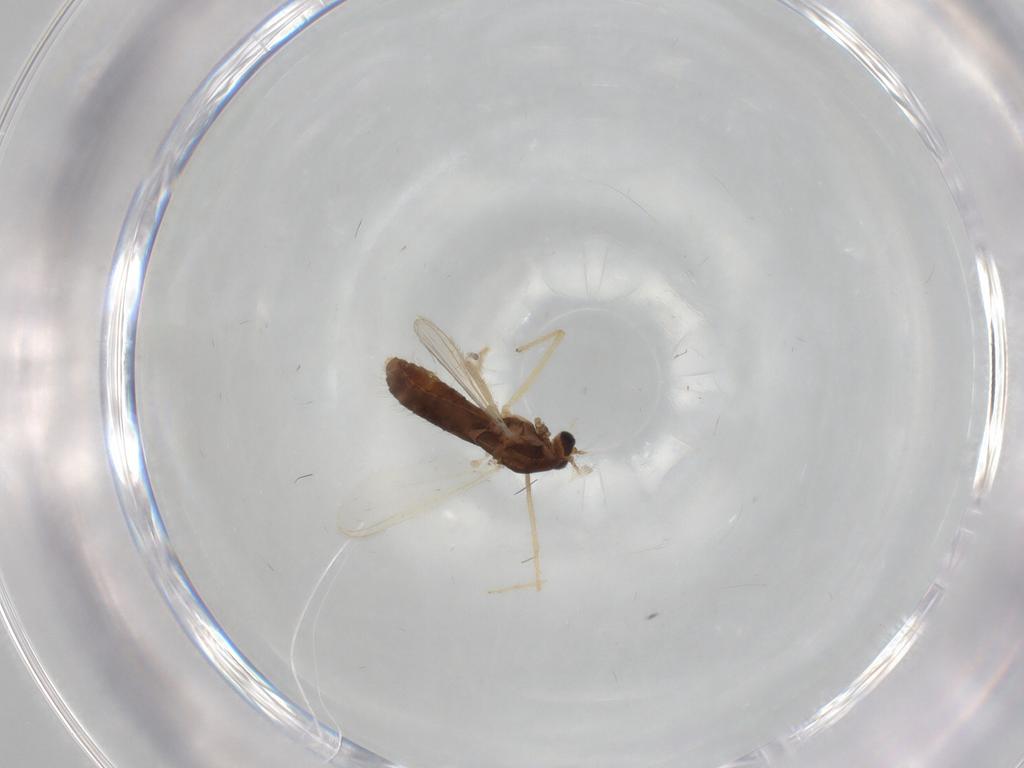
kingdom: Animalia
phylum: Arthropoda
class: Insecta
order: Diptera
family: Chironomidae
